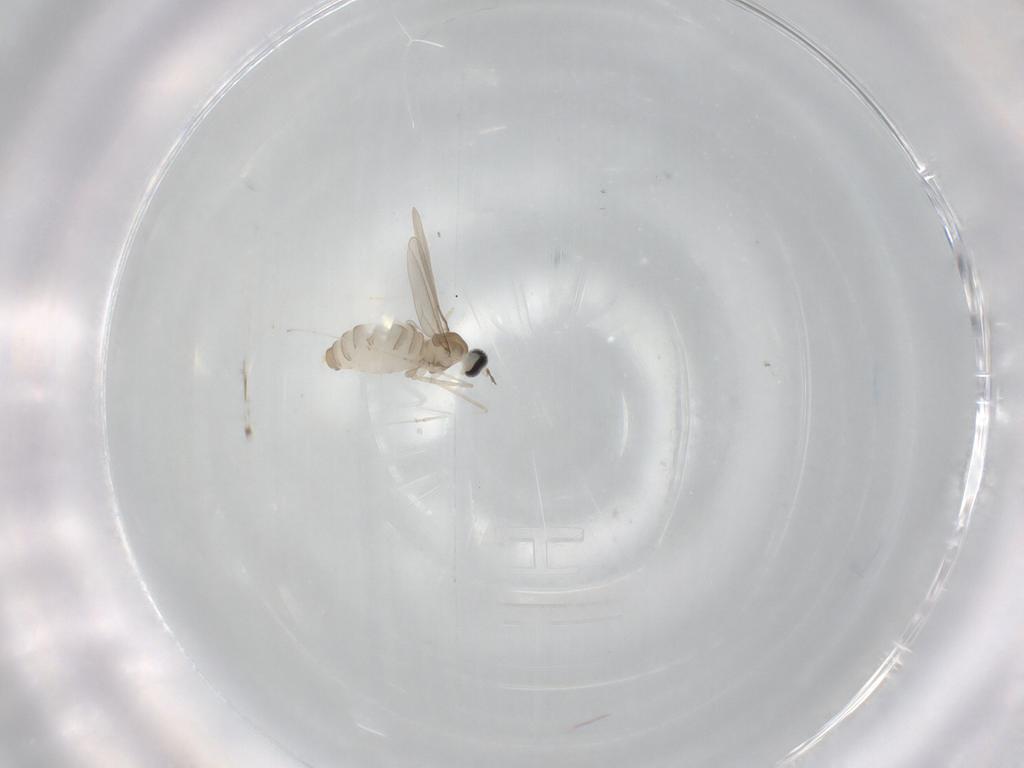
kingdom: Animalia
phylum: Arthropoda
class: Insecta
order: Diptera
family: Cecidomyiidae
